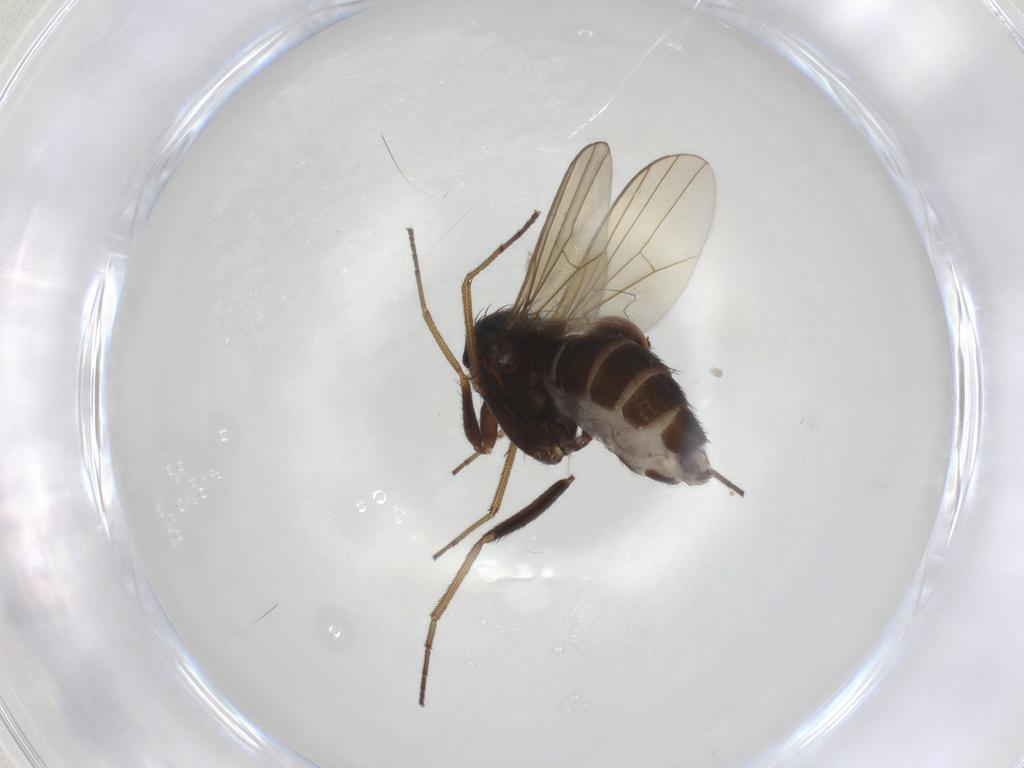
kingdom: Animalia
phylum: Arthropoda
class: Insecta
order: Diptera
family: Dolichopodidae
